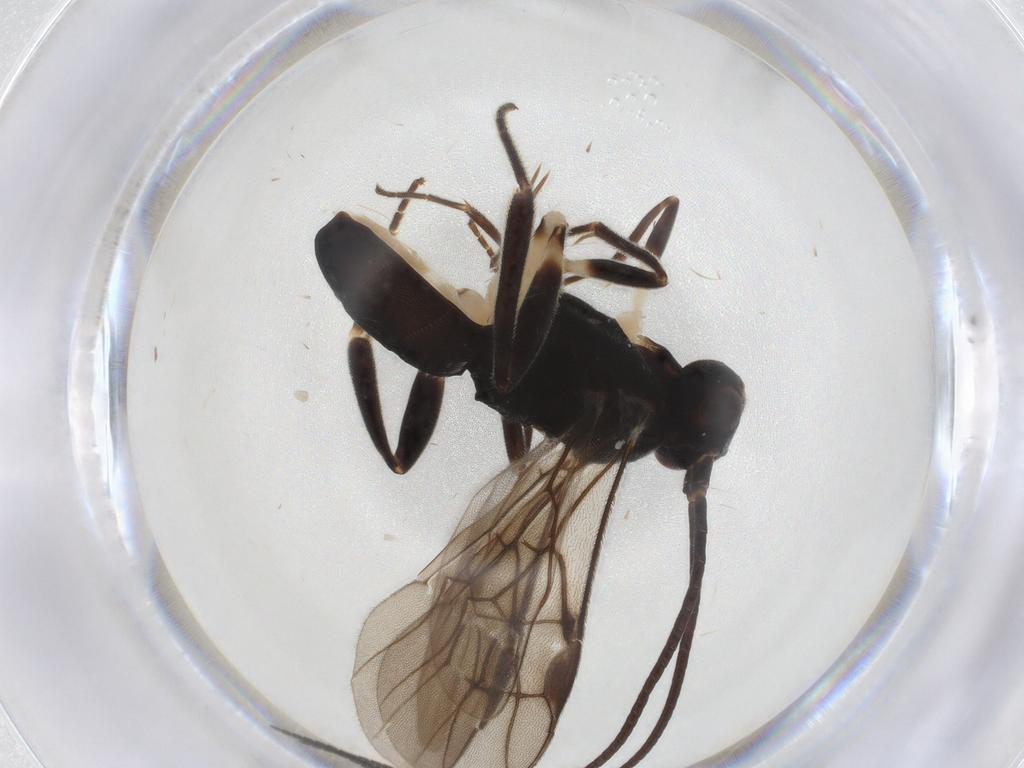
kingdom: Animalia
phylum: Arthropoda
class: Insecta
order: Hymenoptera
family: Braconidae
